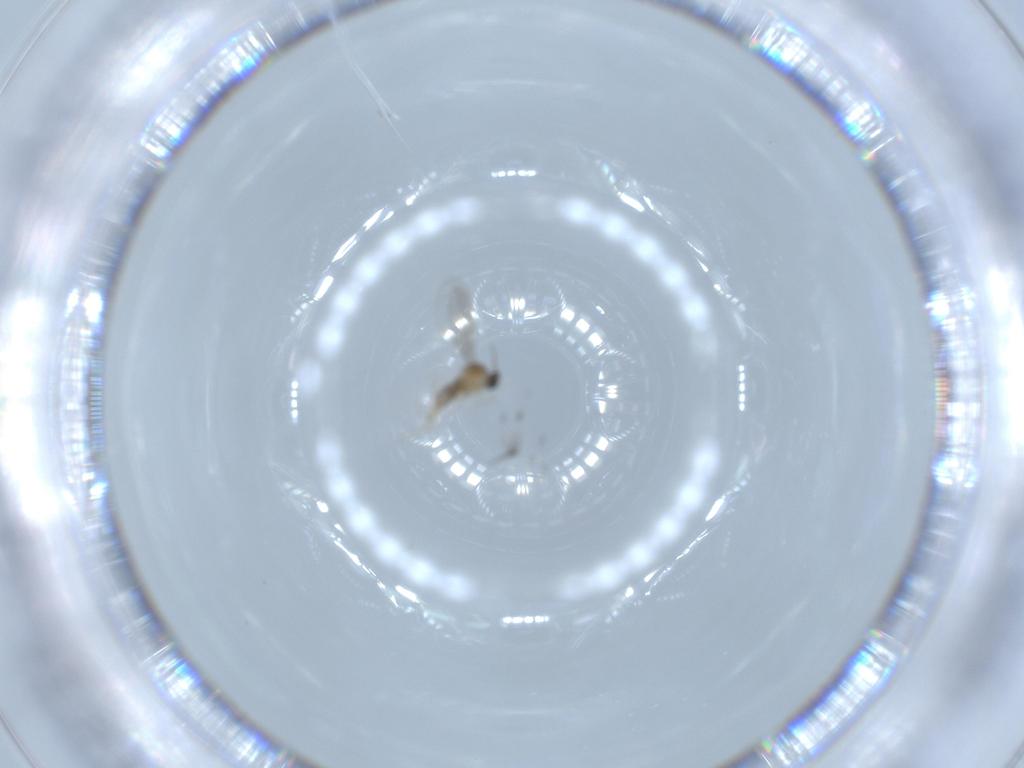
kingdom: Animalia
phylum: Arthropoda
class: Insecta
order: Diptera
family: Cecidomyiidae
